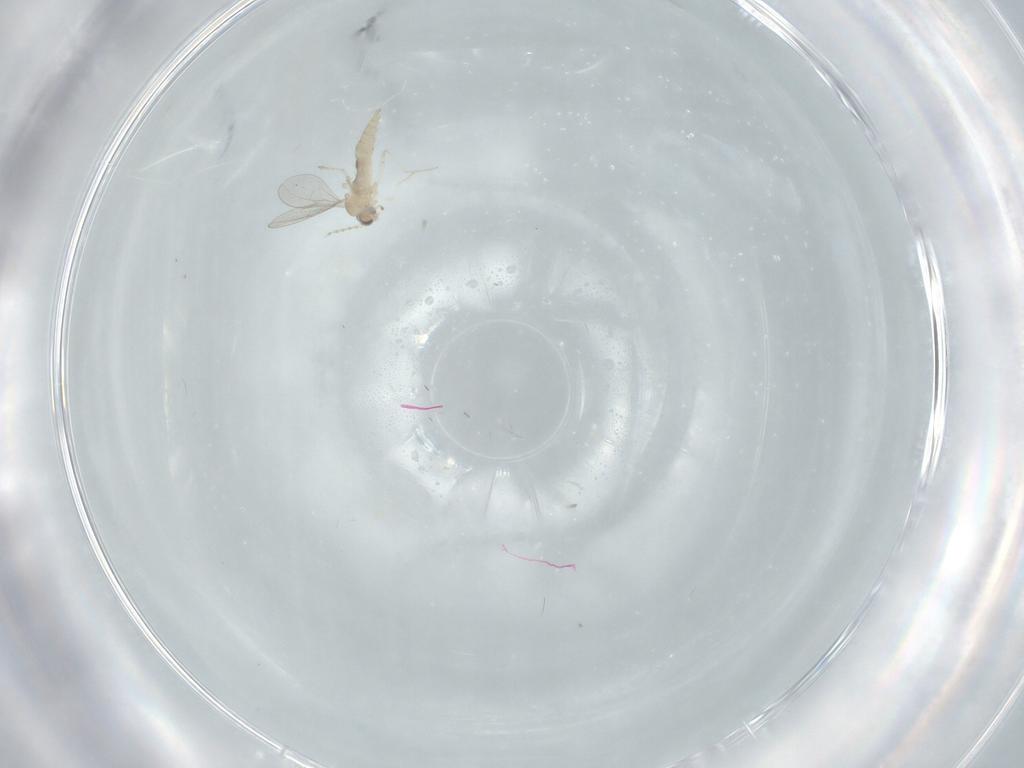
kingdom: Animalia
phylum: Arthropoda
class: Insecta
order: Diptera
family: Cecidomyiidae
